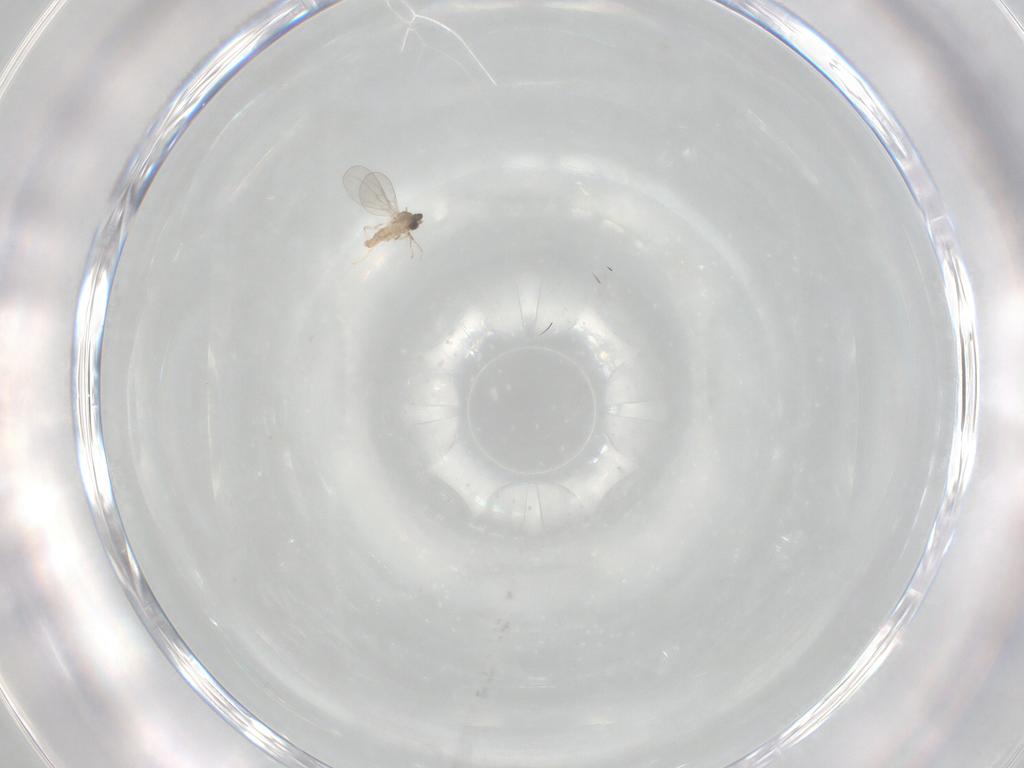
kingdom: Animalia
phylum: Arthropoda
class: Insecta
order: Diptera
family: Cecidomyiidae
